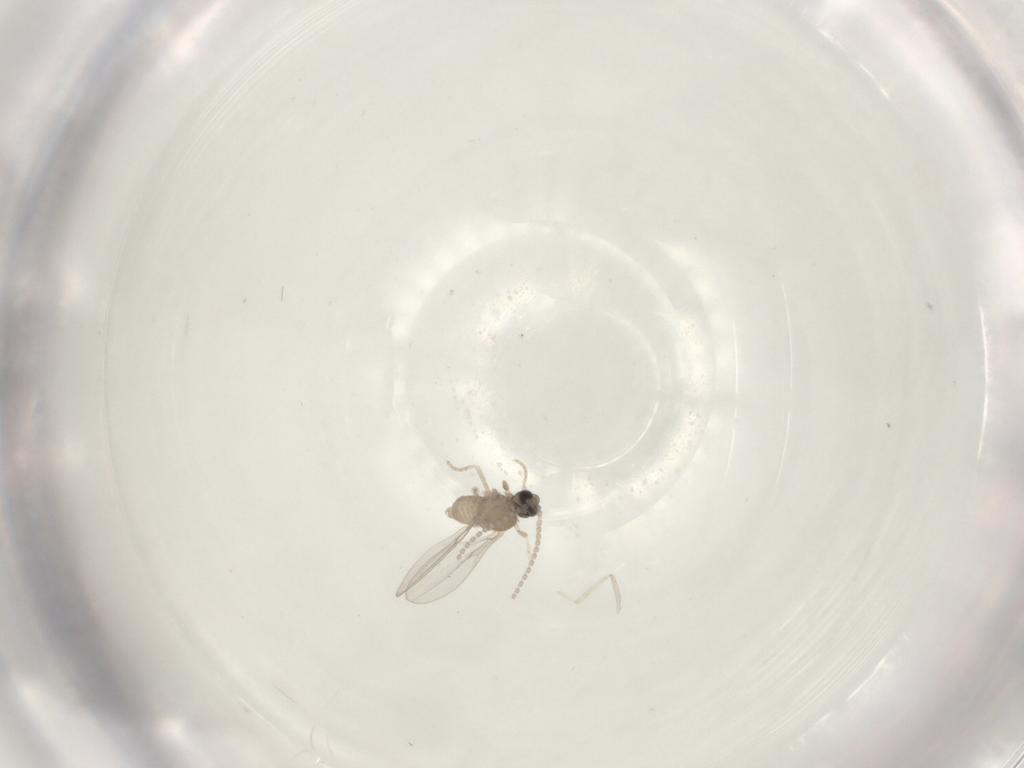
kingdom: Animalia
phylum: Arthropoda
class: Insecta
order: Diptera
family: Cecidomyiidae
